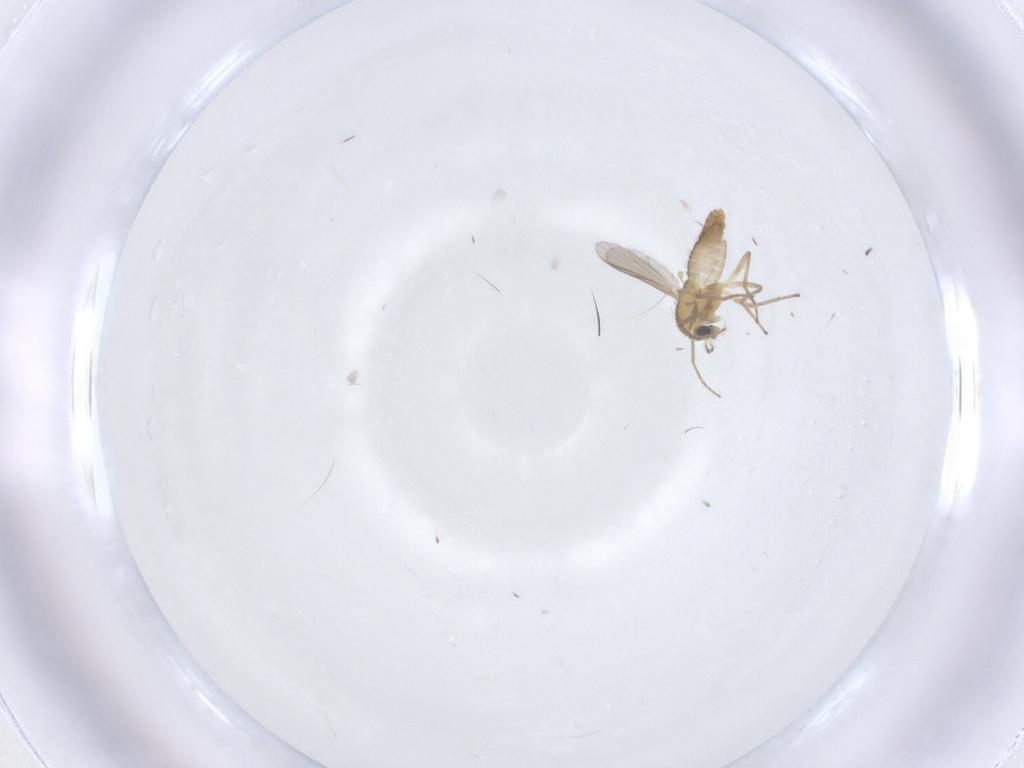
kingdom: Animalia
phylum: Arthropoda
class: Insecta
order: Diptera
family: Chironomidae
